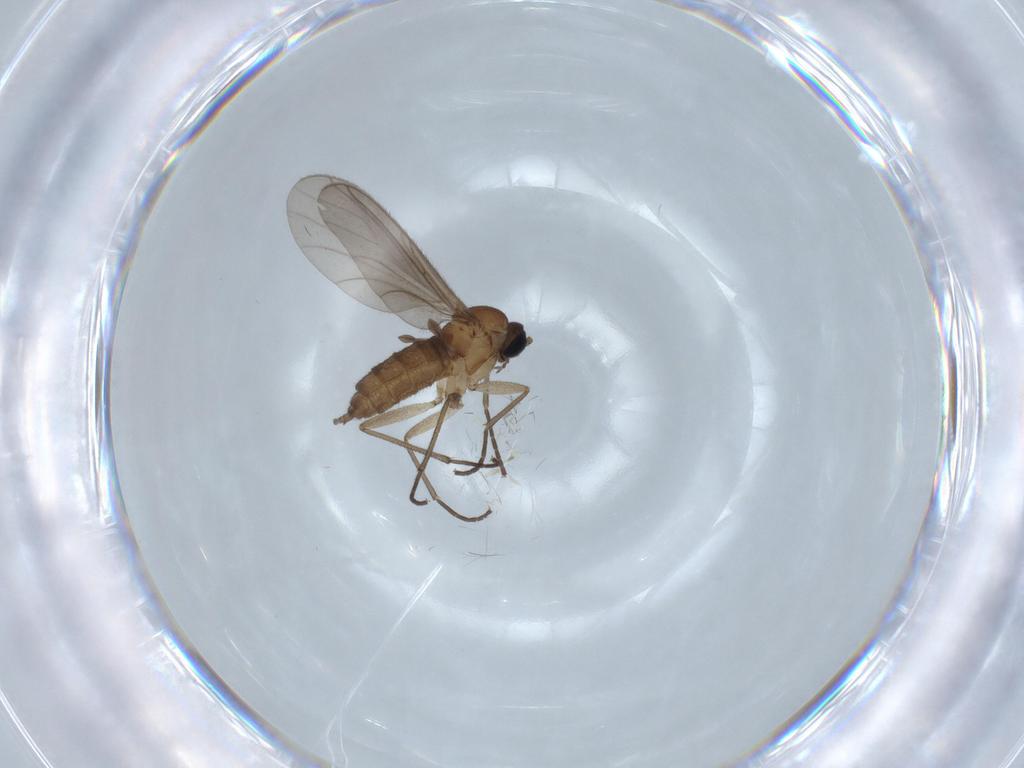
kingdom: Animalia
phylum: Arthropoda
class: Insecta
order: Diptera
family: Sciaridae
